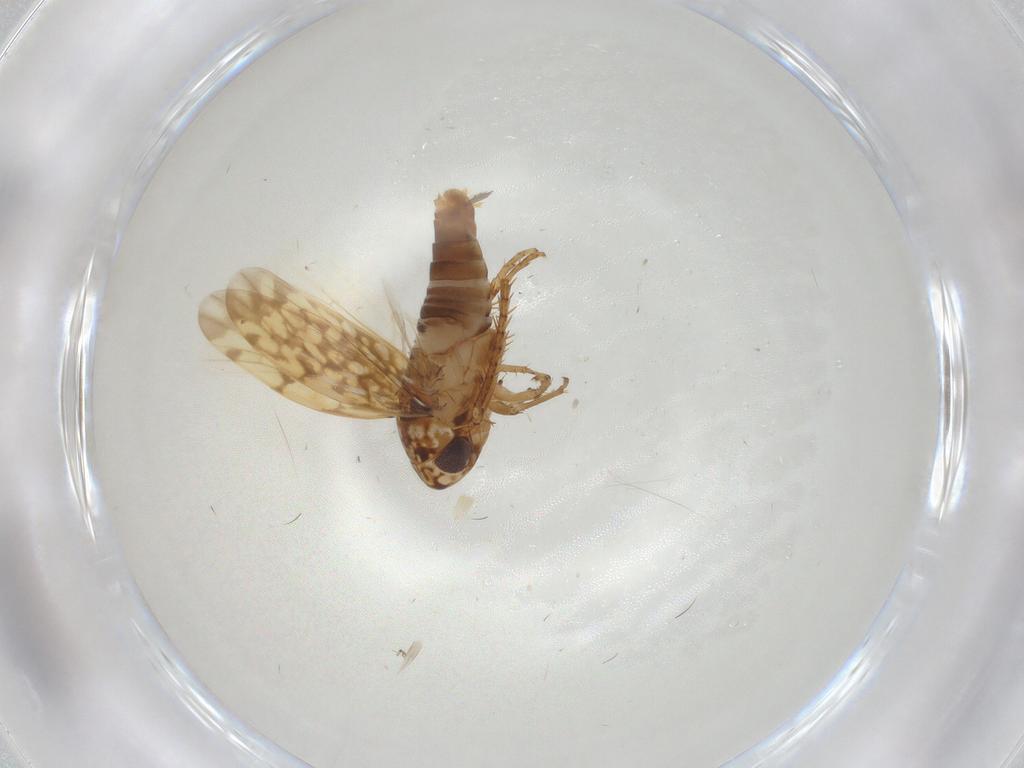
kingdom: Animalia
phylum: Arthropoda
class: Insecta
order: Hemiptera
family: Cicadellidae
